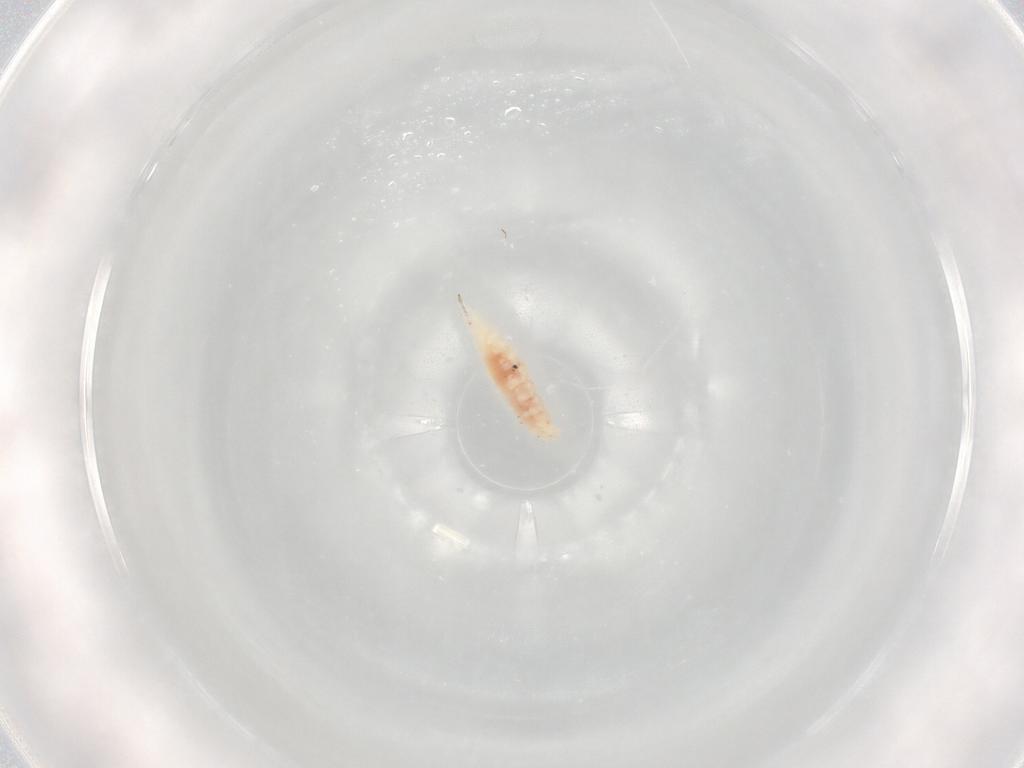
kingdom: Animalia
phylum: Arthropoda
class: Insecta
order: Diptera
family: Cecidomyiidae
